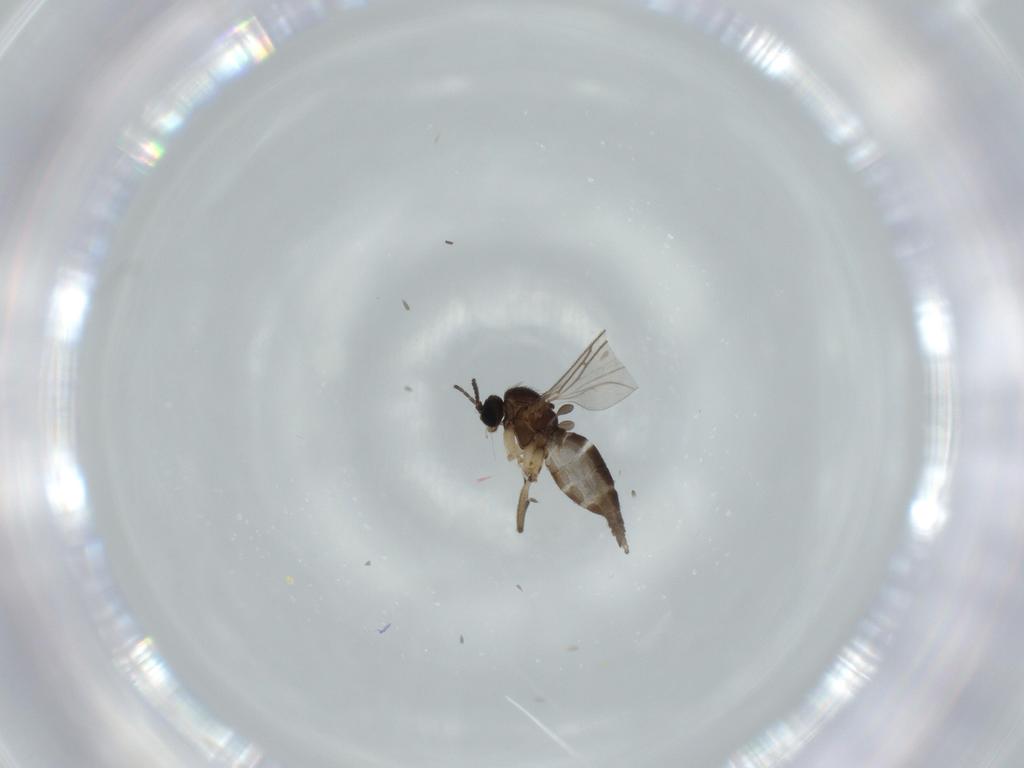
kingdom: Animalia
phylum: Arthropoda
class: Insecta
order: Diptera
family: Sciaridae
